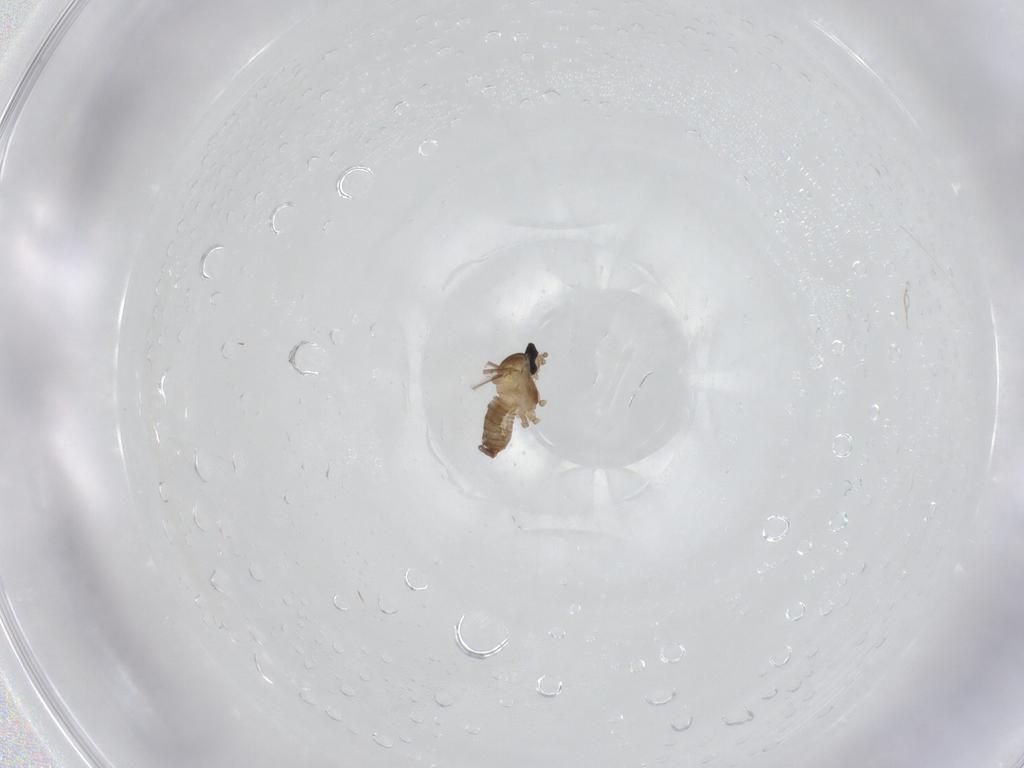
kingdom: Animalia
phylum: Arthropoda
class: Insecta
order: Diptera
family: Cecidomyiidae
